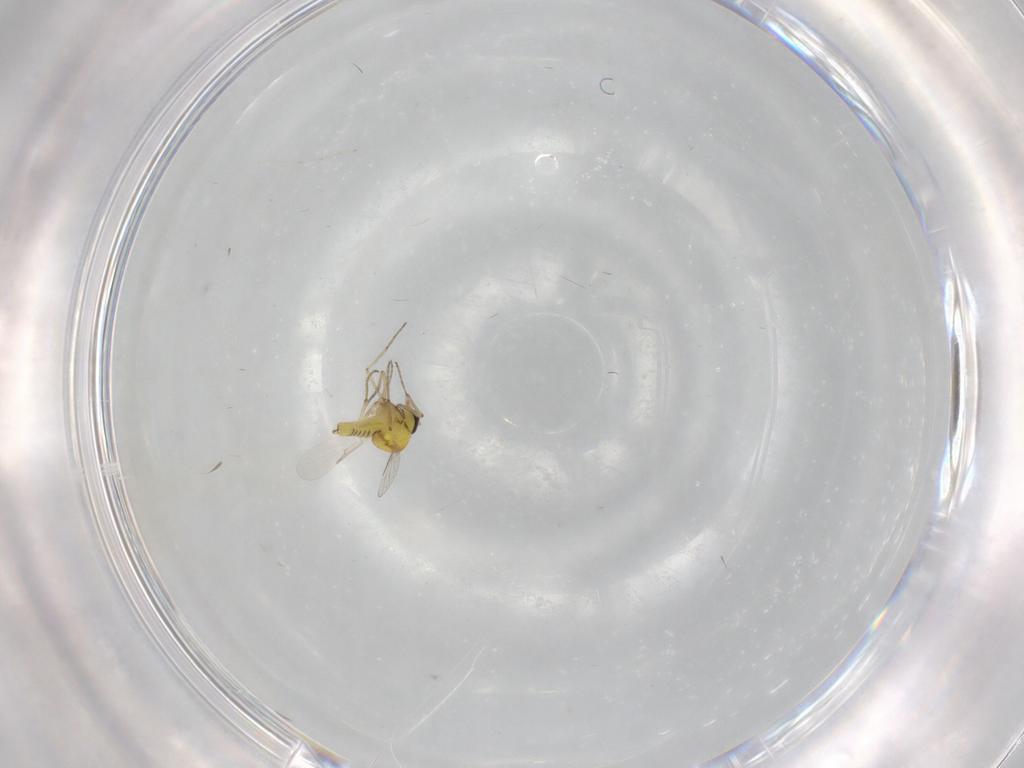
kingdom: Animalia
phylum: Arthropoda
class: Insecta
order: Diptera
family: Ceratopogonidae
